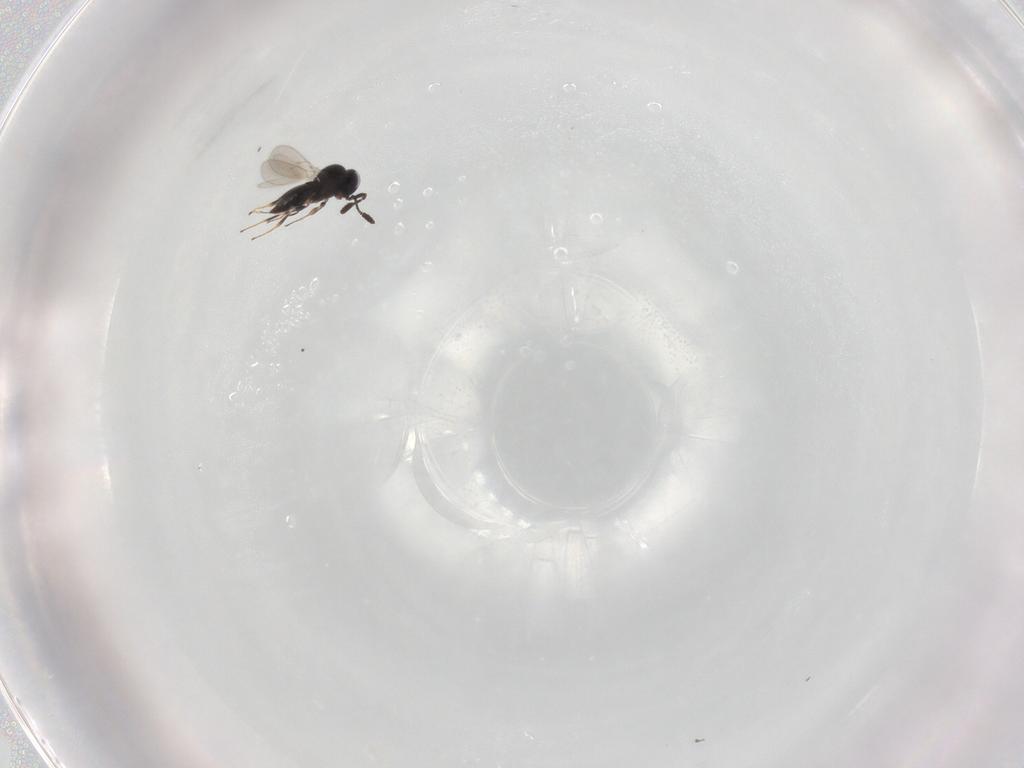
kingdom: Animalia
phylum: Arthropoda
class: Insecta
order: Hymenoptera
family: Scelionidae
